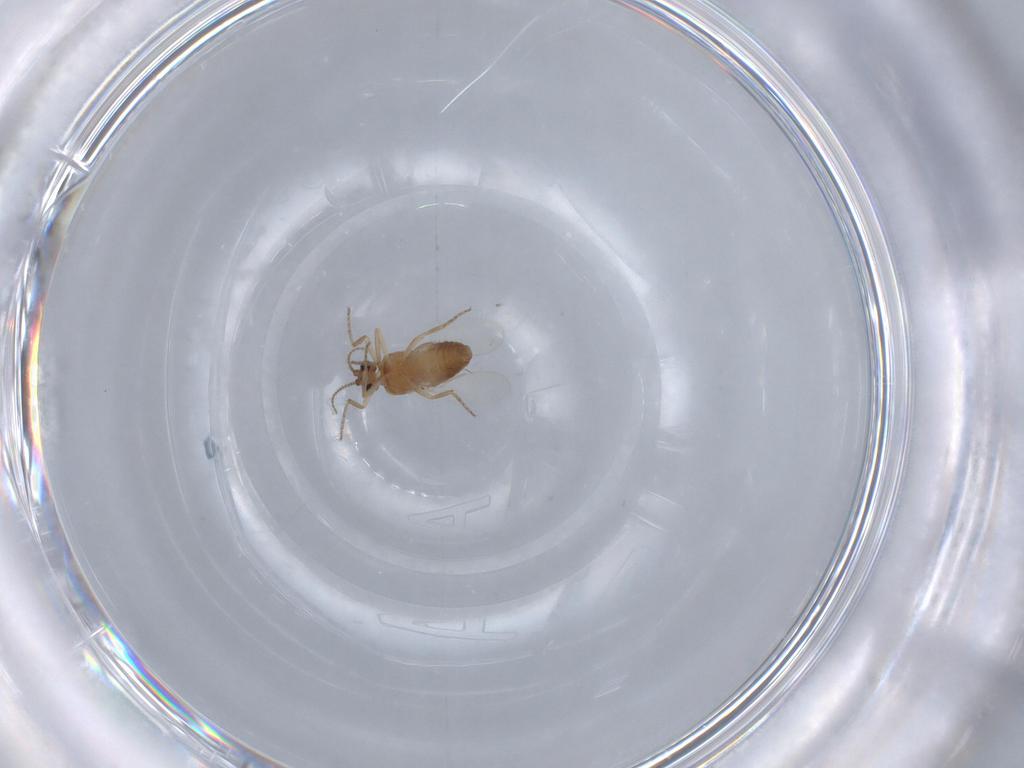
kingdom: Animalia
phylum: Arthropoda
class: Insecta
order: Diptera
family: Ceratopogonidae
